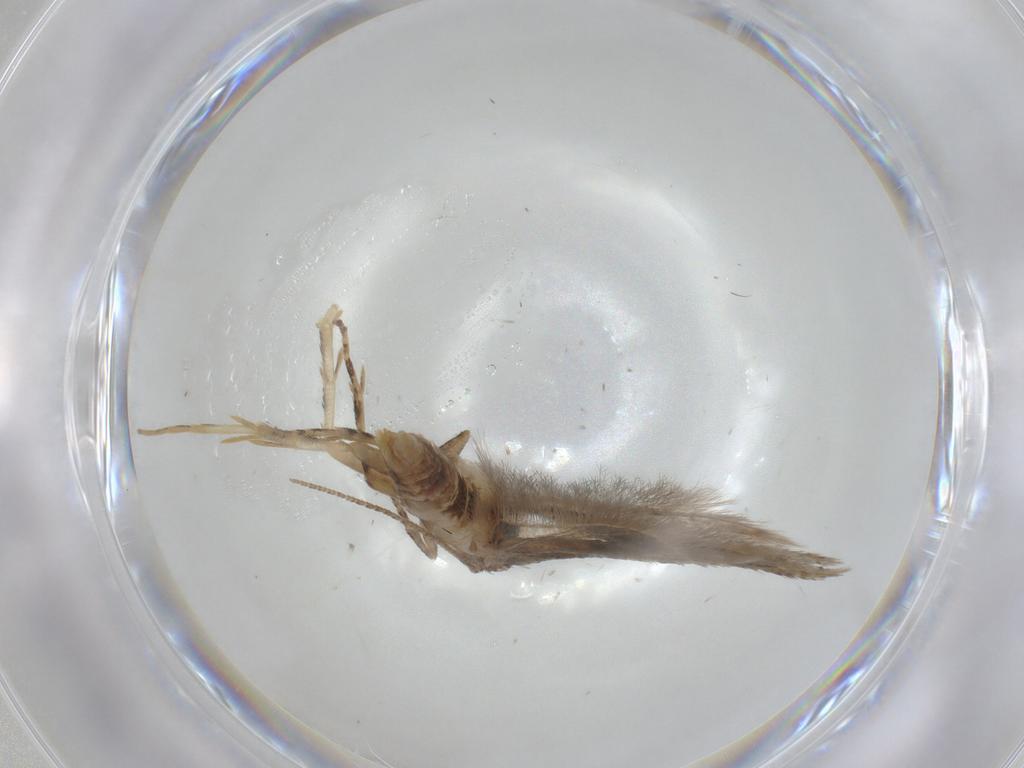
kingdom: Animalia
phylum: Arthropoda
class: Insecta
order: Lepidoptera
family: Gelechiidae
